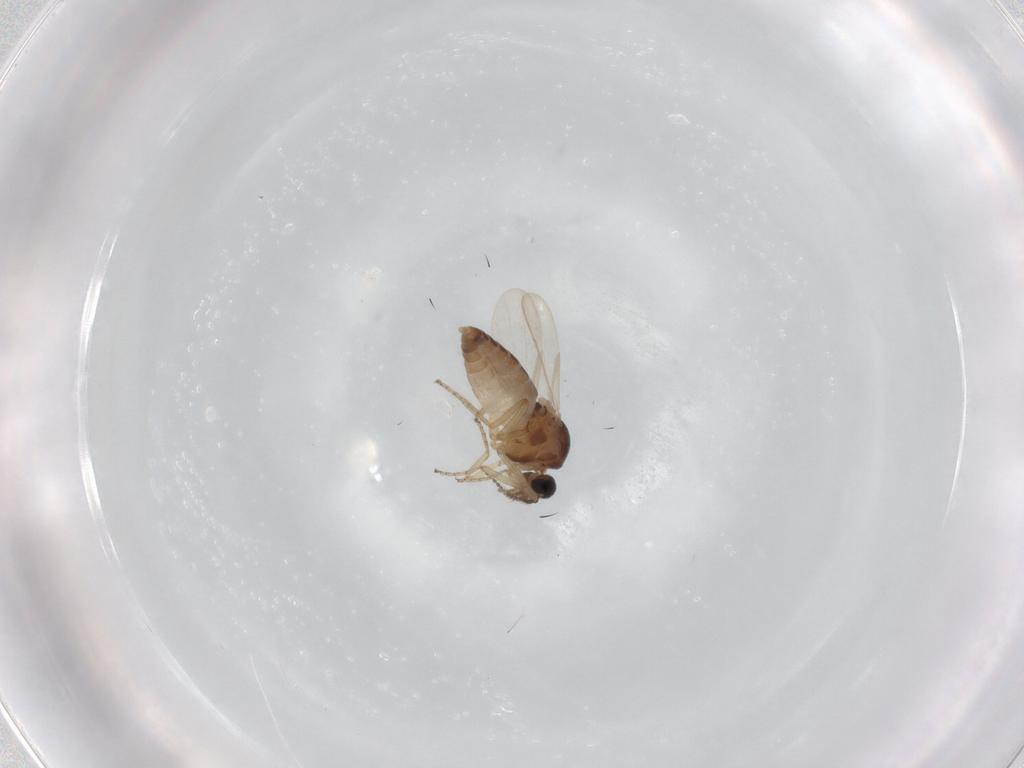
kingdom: Animalia
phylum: Arthropoda
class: Insecta
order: Diptera
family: Ceratopogonidae
